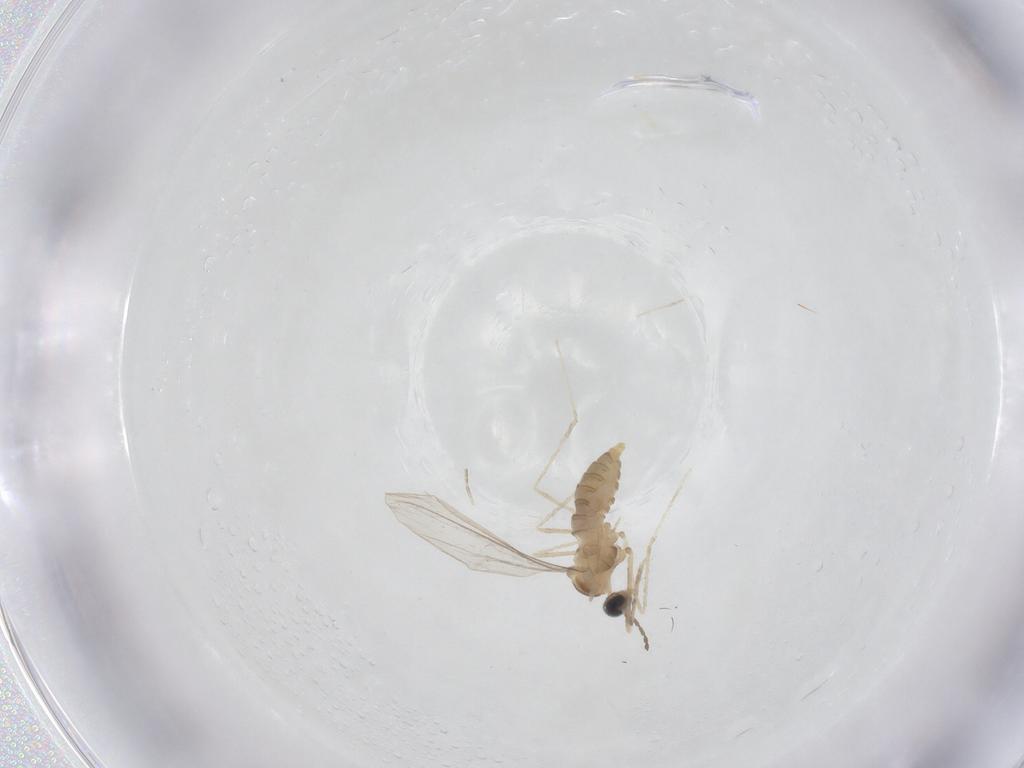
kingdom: Animalia
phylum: Arthropoda
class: Insecta
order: Diptera
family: Cecidomyiidae
